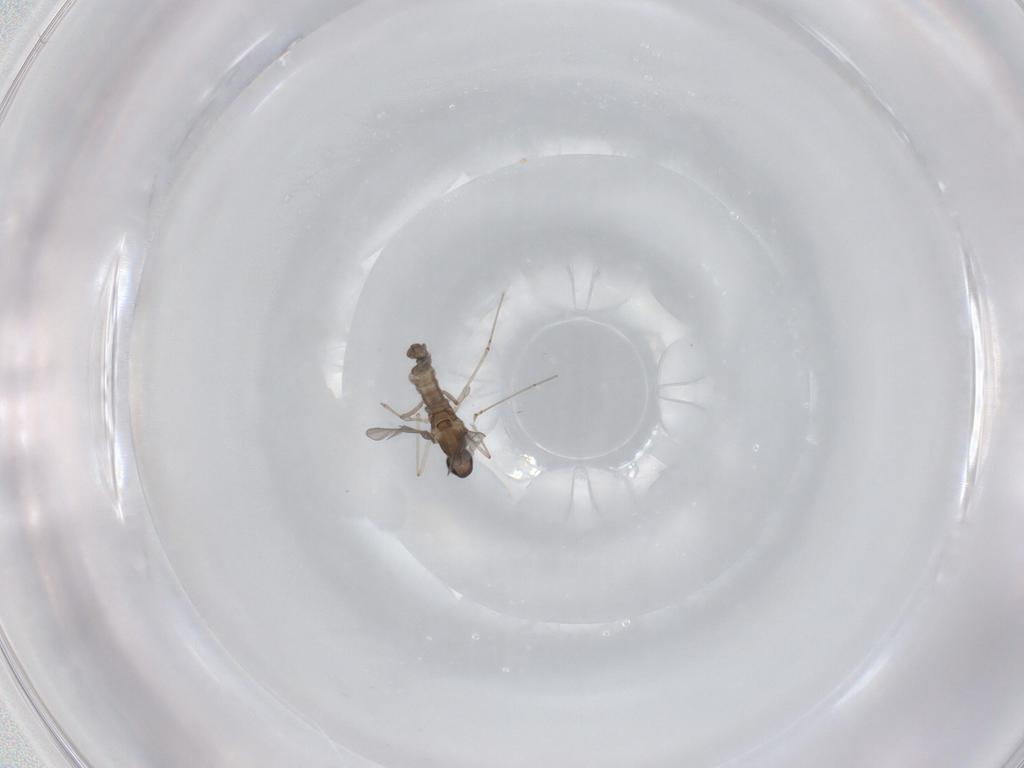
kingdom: Animalia
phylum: Arthropoda
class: Insecta
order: Diptera
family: Cecidomyiidae
